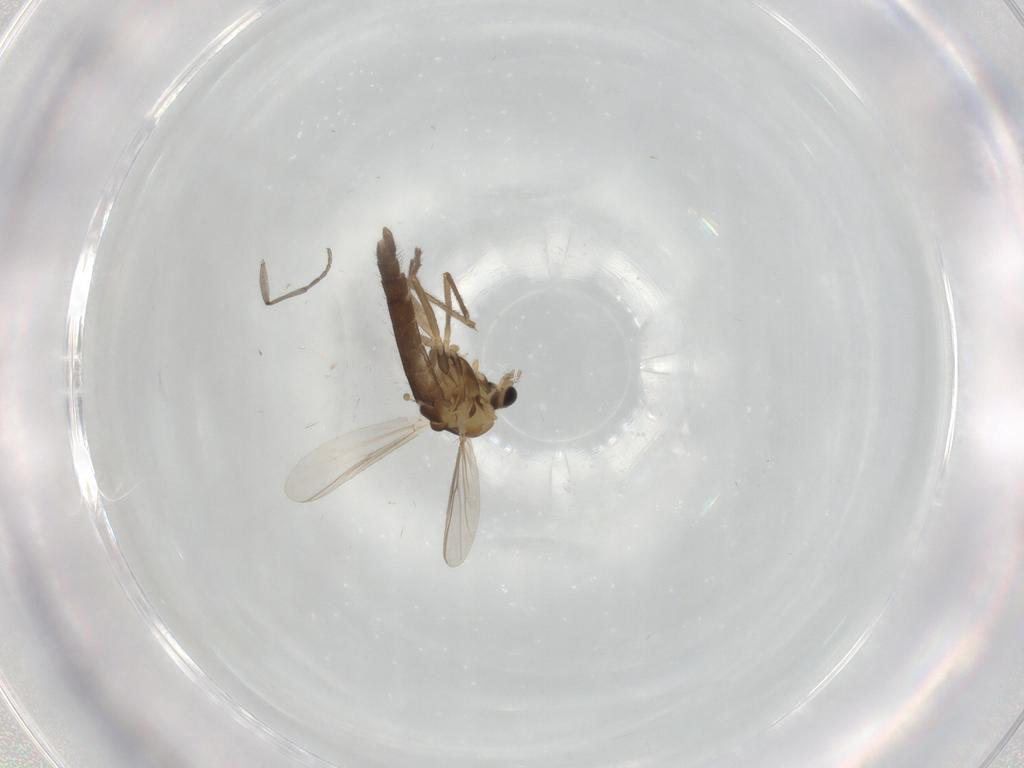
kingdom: Animalia
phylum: Arthropoda
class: Insecta
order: Diptera
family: Chironomidae
